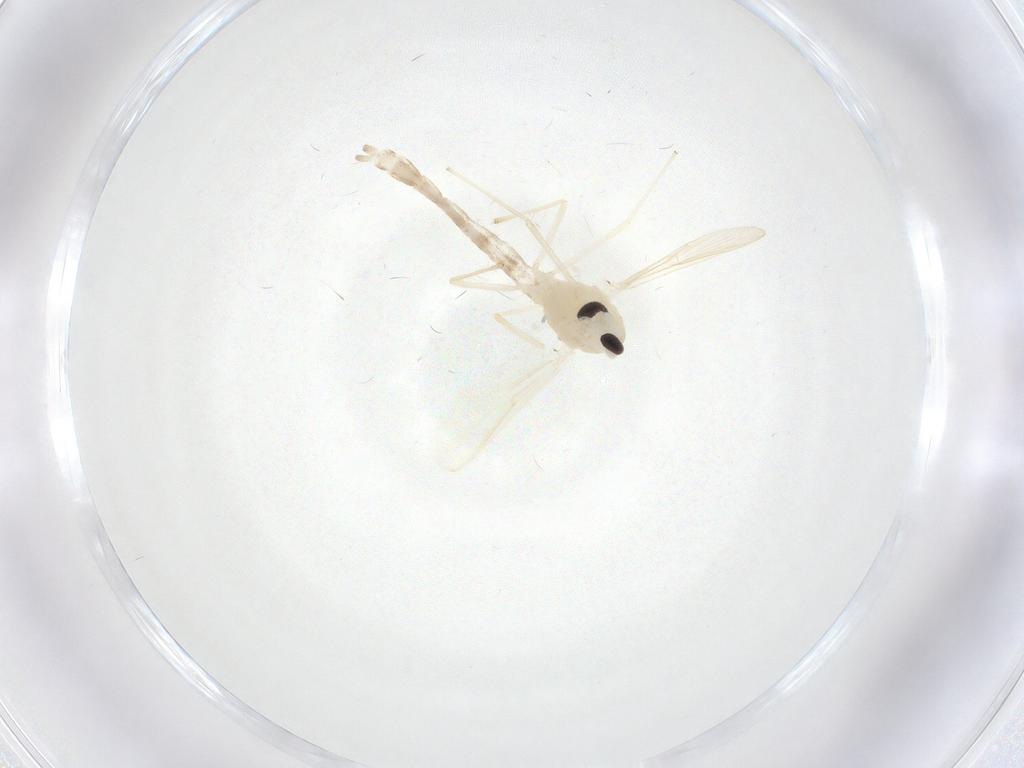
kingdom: Animalia
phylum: Arthropoda
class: Insecta
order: Diptera
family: Chironomidae
